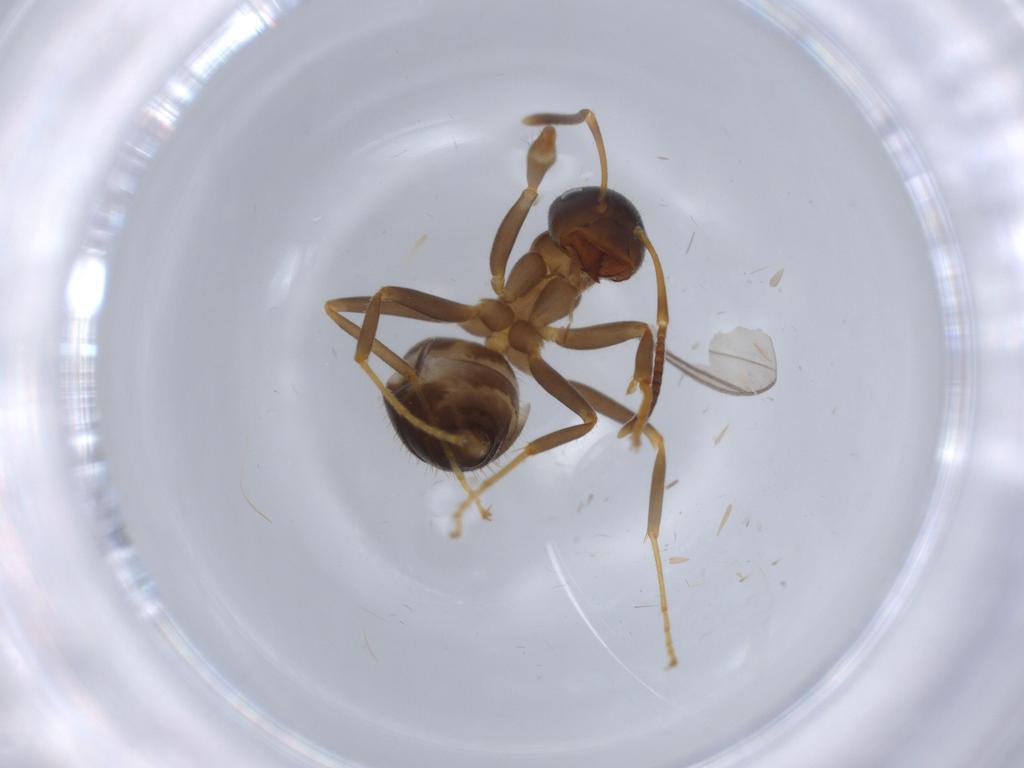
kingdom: Animalia
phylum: Arthropoda
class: Insecta
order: Hymenoptera
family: Formicidae
